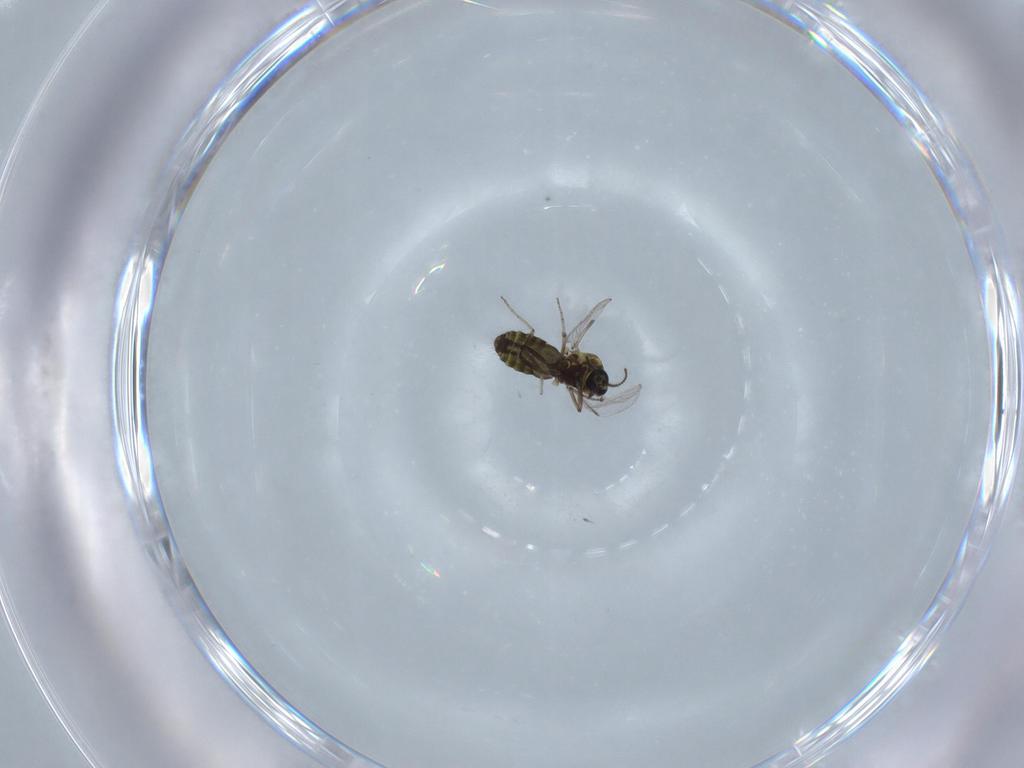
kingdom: Animalia
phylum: Arthropoda
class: Insecta
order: Diptera
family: Ceratopogonidae
